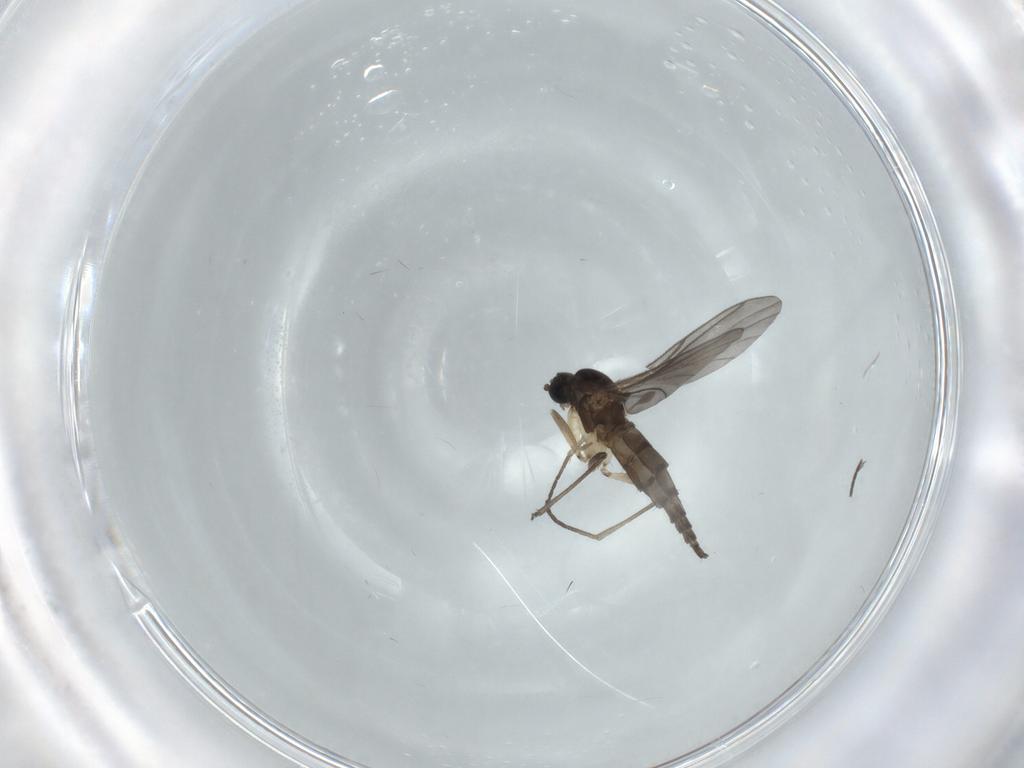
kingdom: Animalia
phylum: Arthropoda
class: Insecta
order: Diptera
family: Sciaridae
